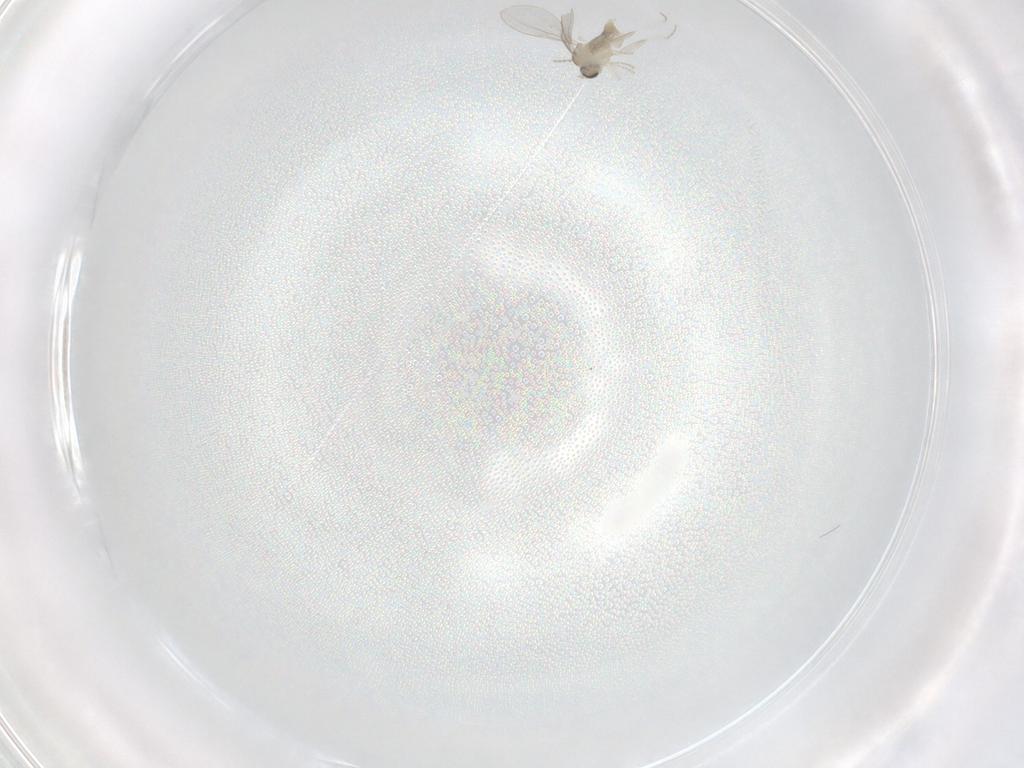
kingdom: Animalia
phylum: Arthropoda
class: Insecta
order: Diptera
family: Cecidomyiidae
